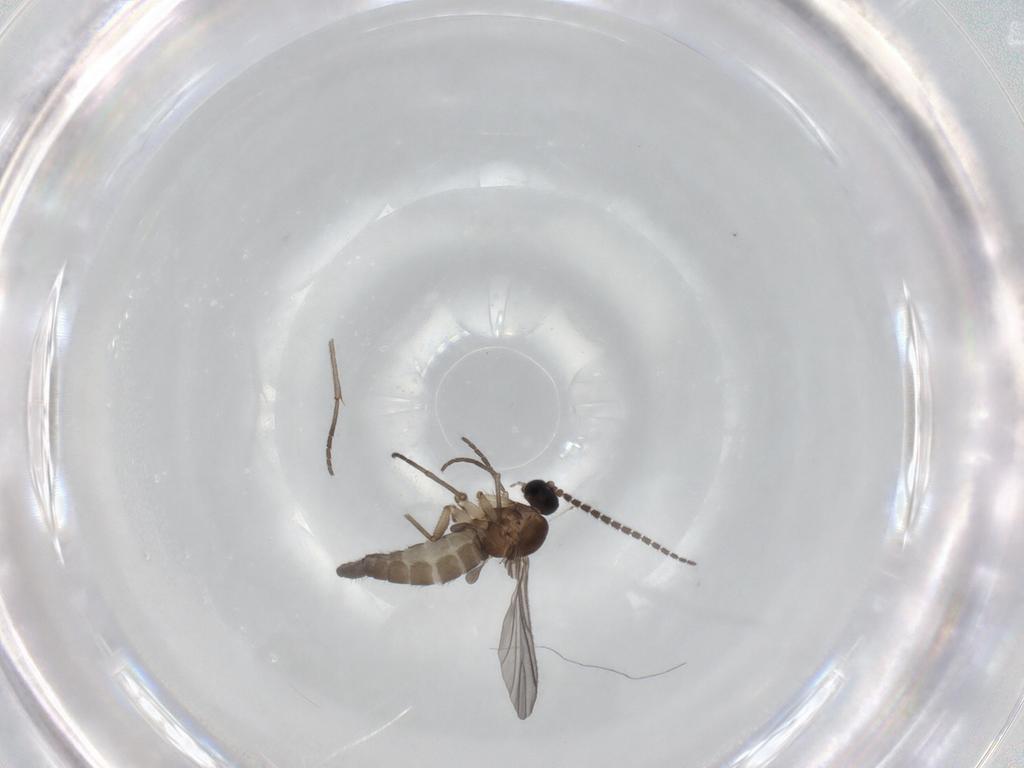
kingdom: Animalia
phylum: Arthropoda
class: Insecta
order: Diptera
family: Sciaridae
